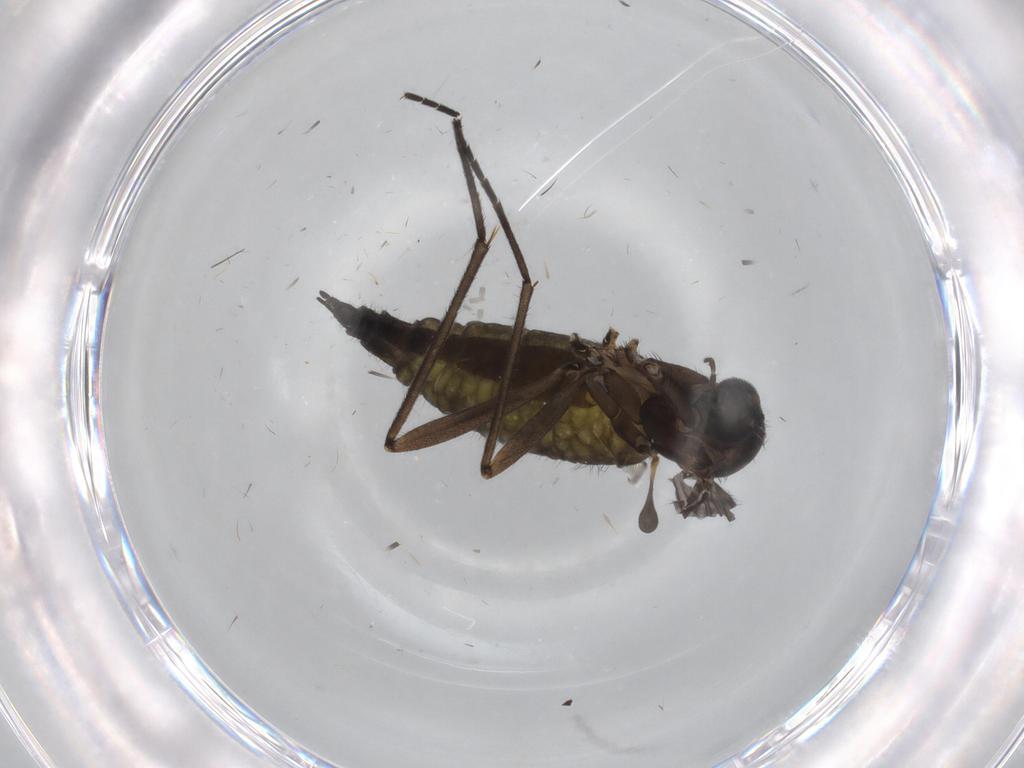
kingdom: Animalia
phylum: Arthropoda
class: Insecta
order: Diptera
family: Sciaridae
